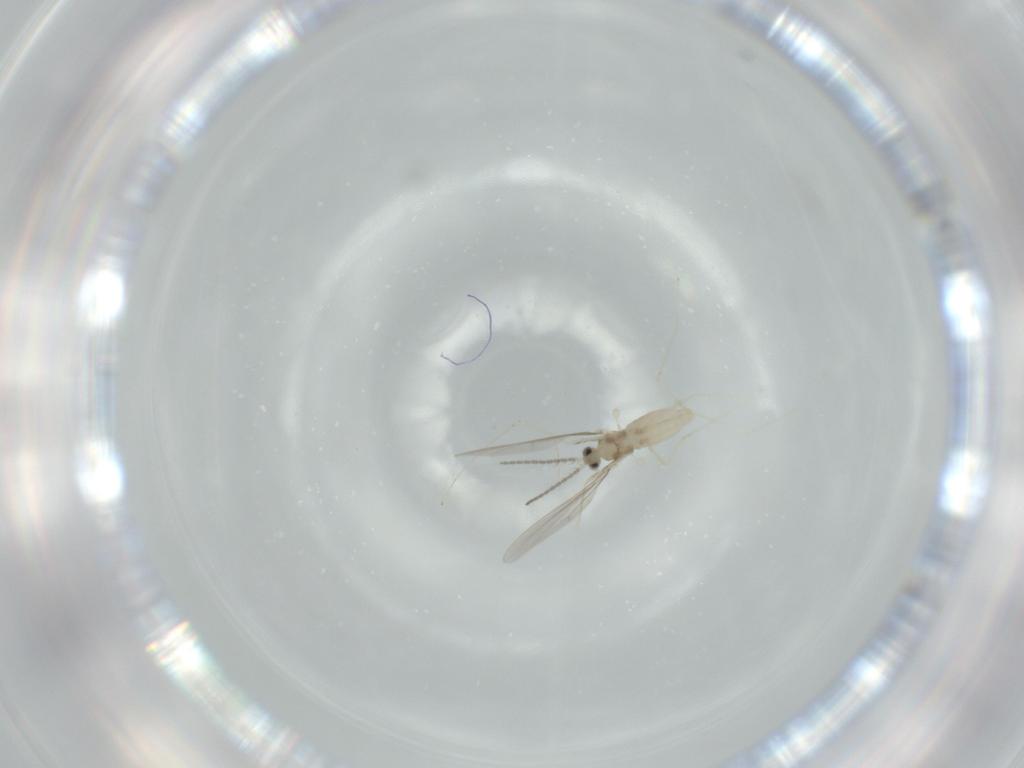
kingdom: Animalia
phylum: Arthropoda
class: Insecta
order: Diptera
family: Cecidomyiidae
